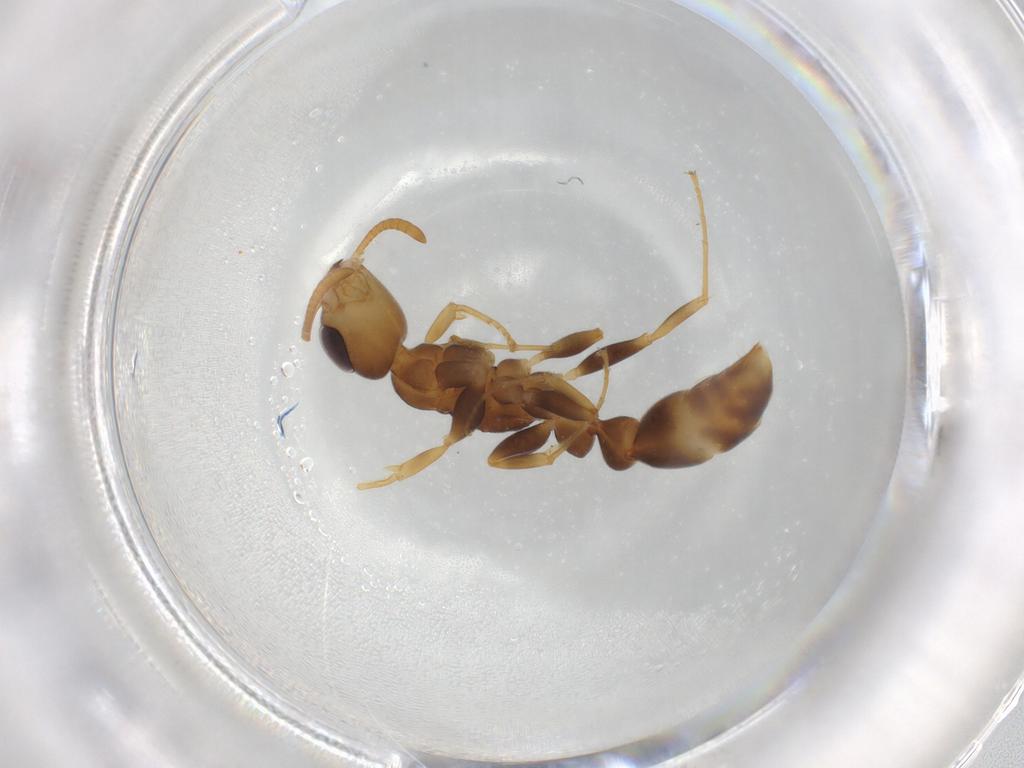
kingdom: Animalia
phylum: Arthropoda
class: Insecta
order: Hymenoptera
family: Formicidae
